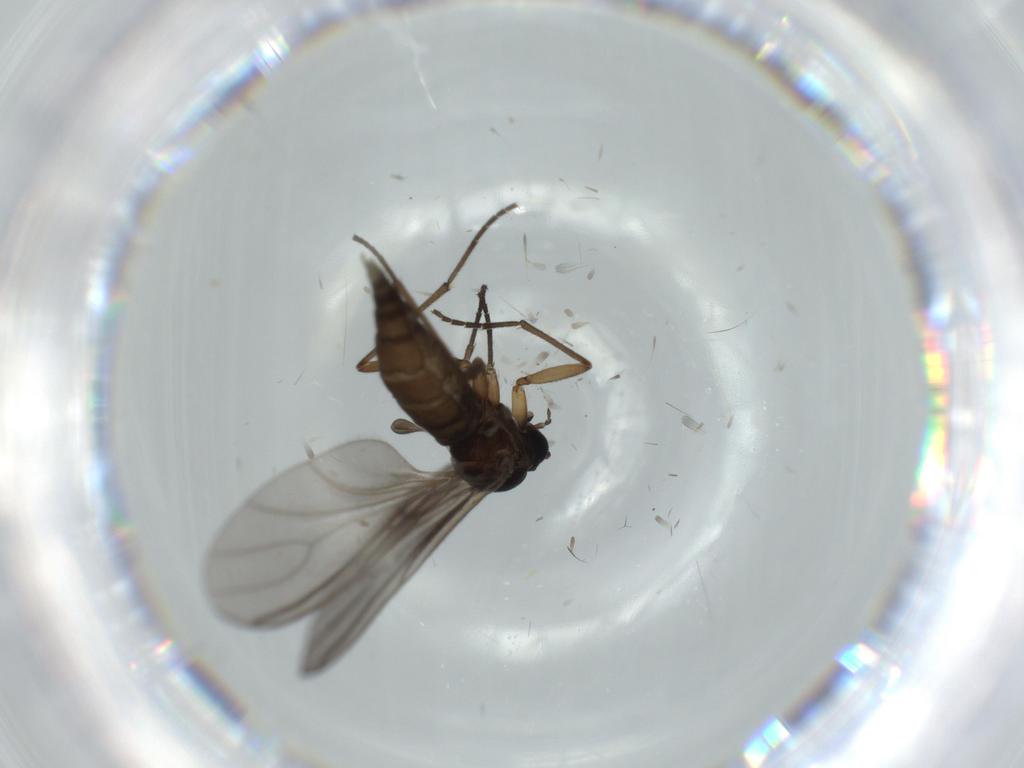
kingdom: Animalia
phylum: Arthropoda
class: Insecta
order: Diptera
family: Sciaridae
